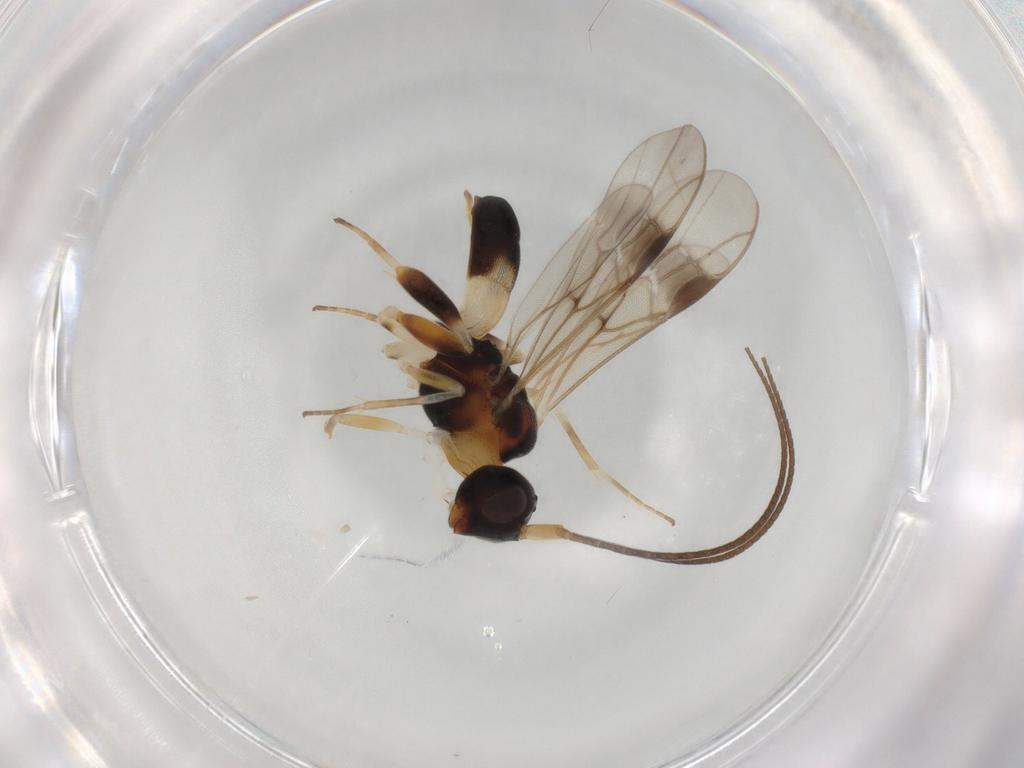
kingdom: Animalia
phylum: Arthropoda
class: Insecta
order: Hymenoptera
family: Braconidae
